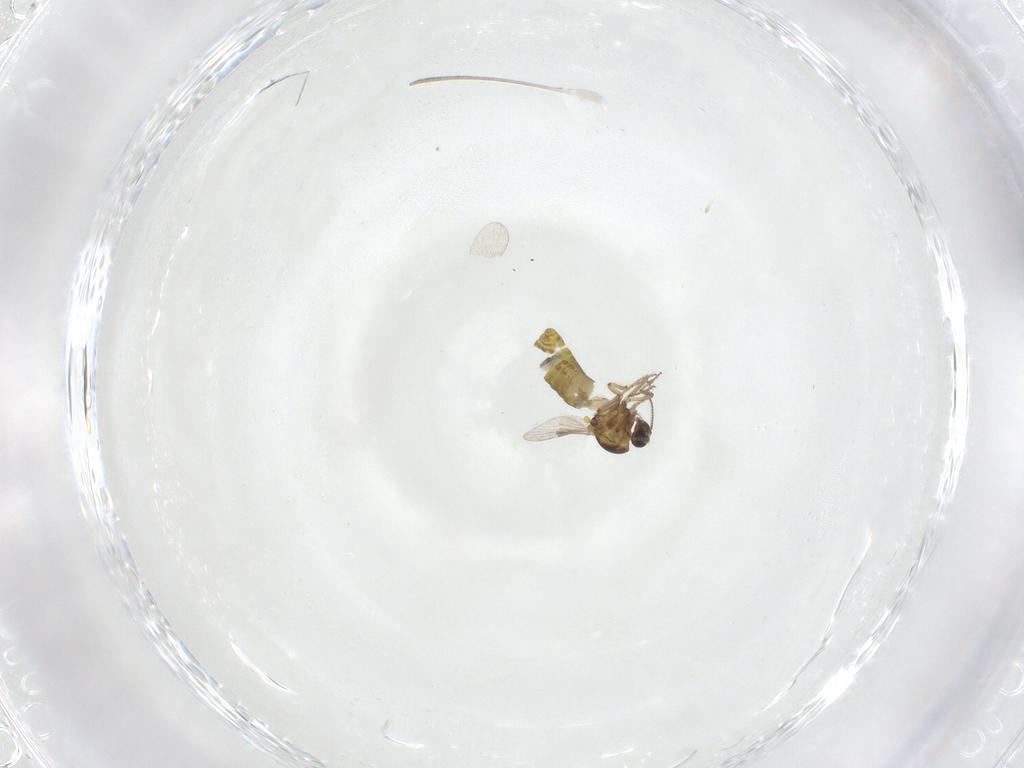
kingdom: Animalia
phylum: Arthropoda
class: Insecta
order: Diptera
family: Ceratopogonidae
